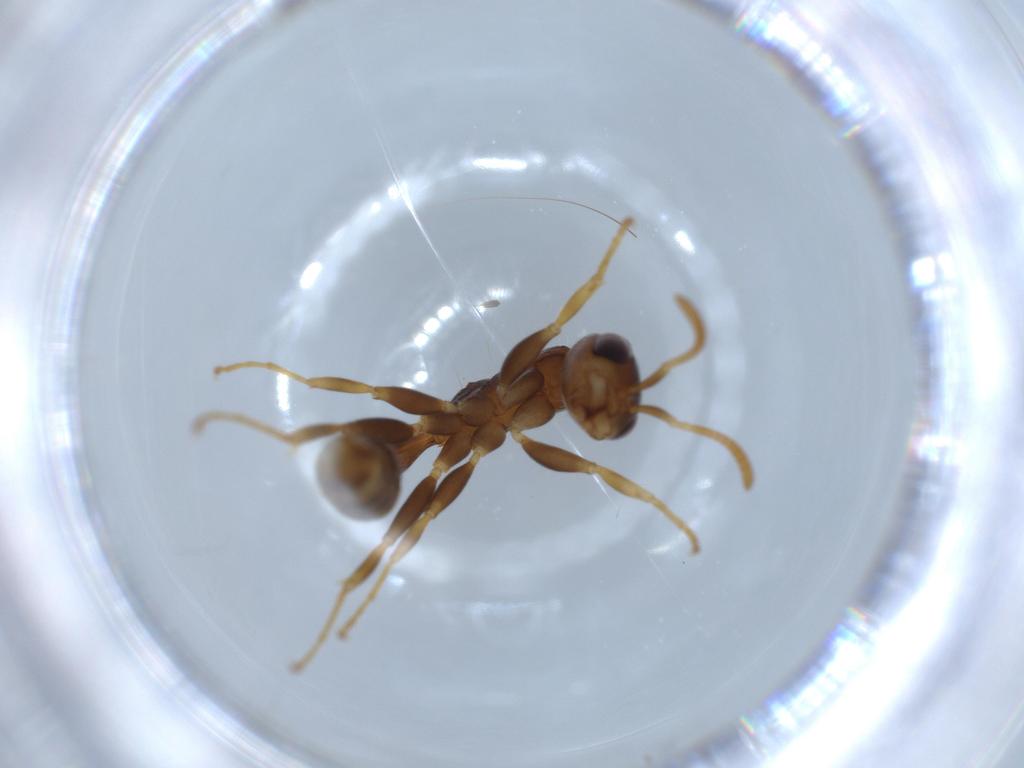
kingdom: Animalia
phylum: Arthropoda
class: Insecta
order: Hymenoptera
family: Formicidae
